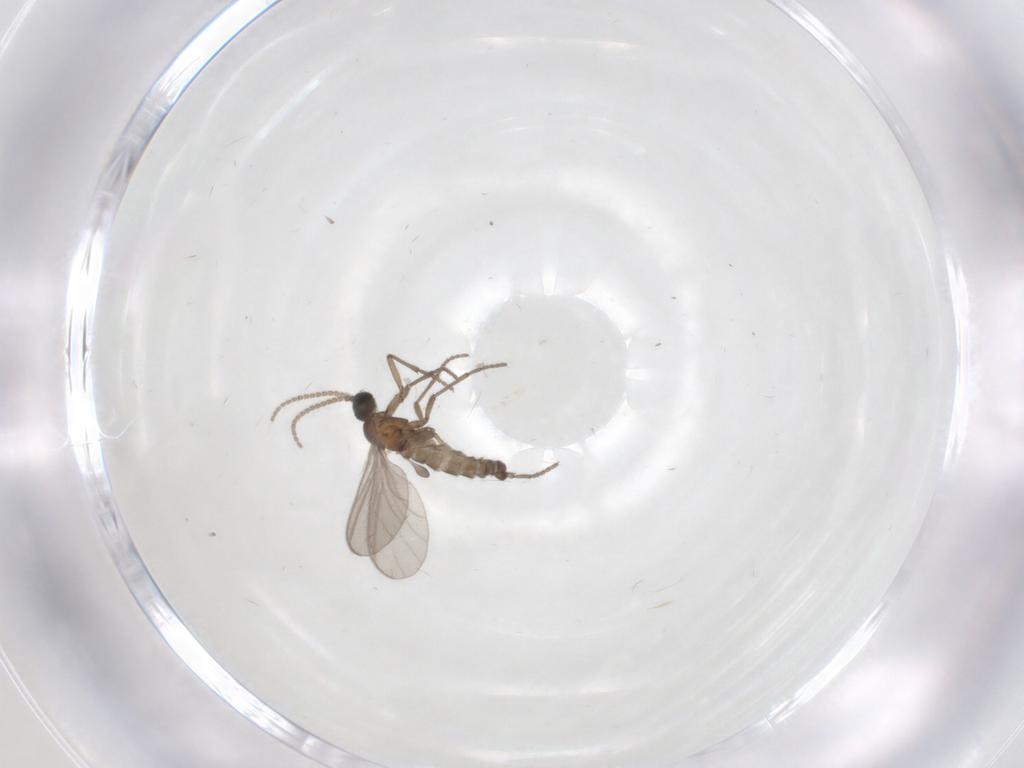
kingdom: Animalia
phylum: Arthropoda
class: Insecta
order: Diptera
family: Sciaridae
